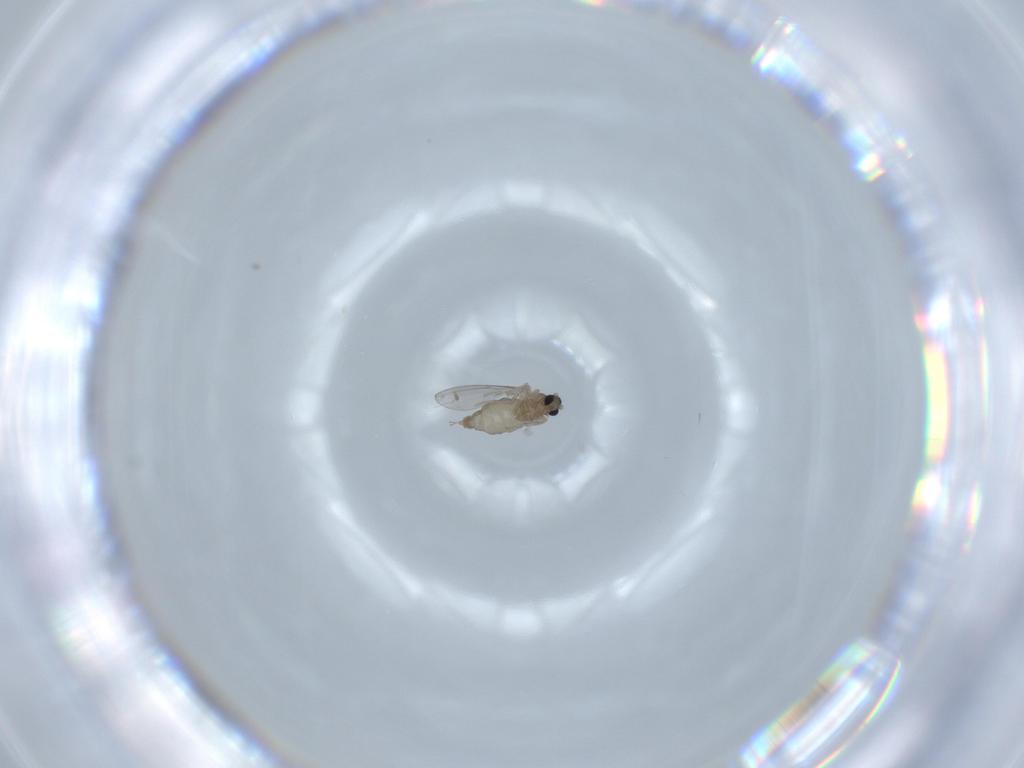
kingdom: Animalia
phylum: Arthropoda
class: Insecta
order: Diptera
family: Cecidomyiidae
